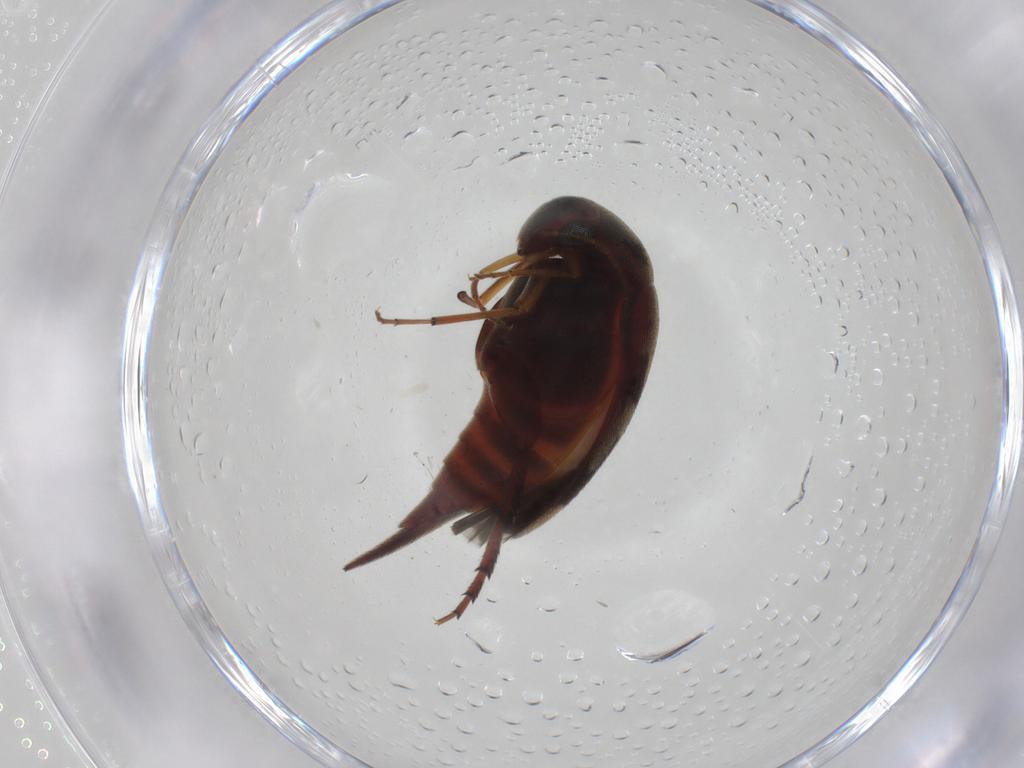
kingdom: Animalia
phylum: Arthropoda
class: Insecta
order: Coleoptera
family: Mordellidae
